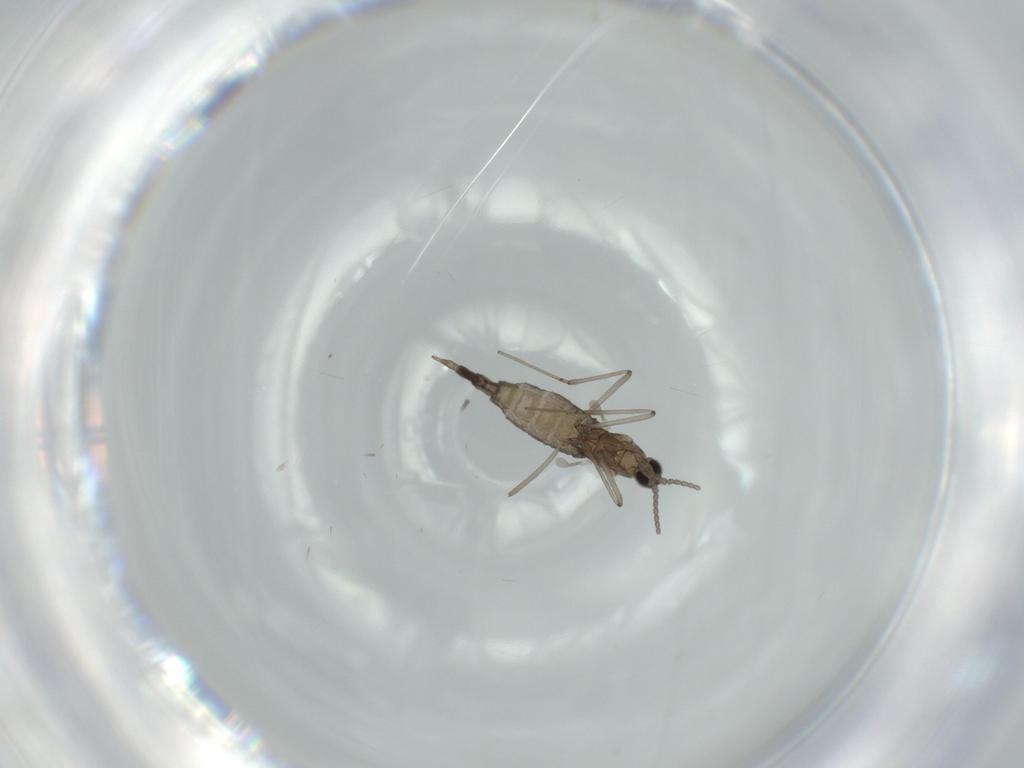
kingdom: Animalia
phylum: Arthropoda
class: Insecta
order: Diptera
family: Cecidomyiidae
